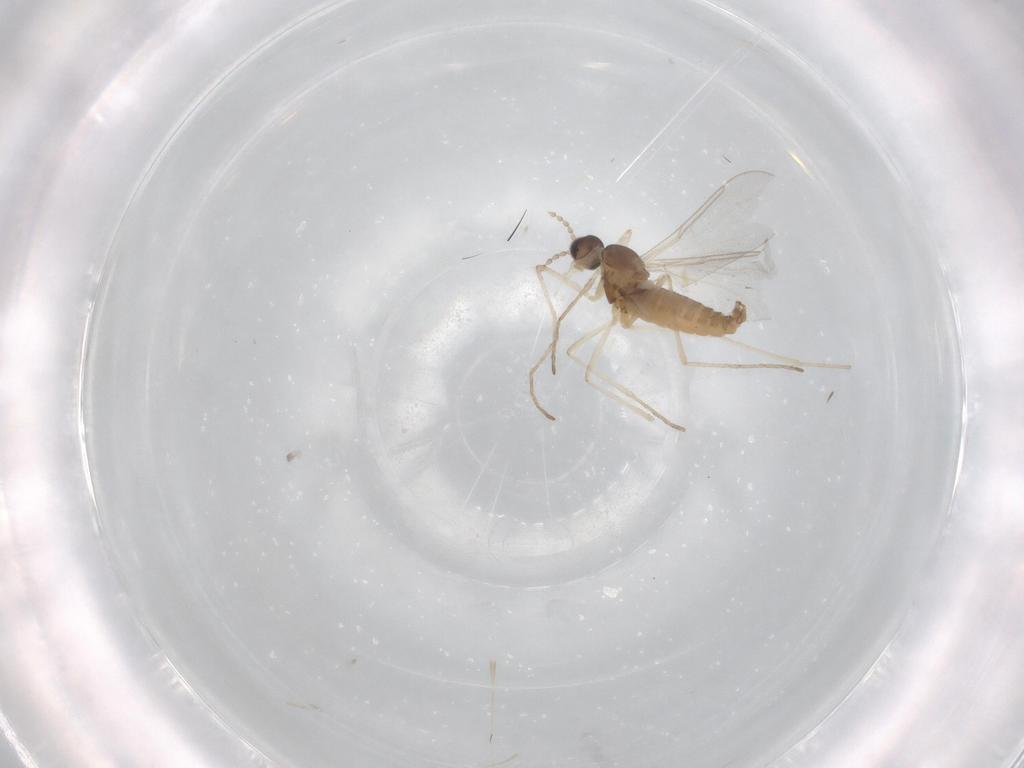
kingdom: Animalia
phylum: Arthropoda
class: Insecta
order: Diptera
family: Cecidomyiidae
